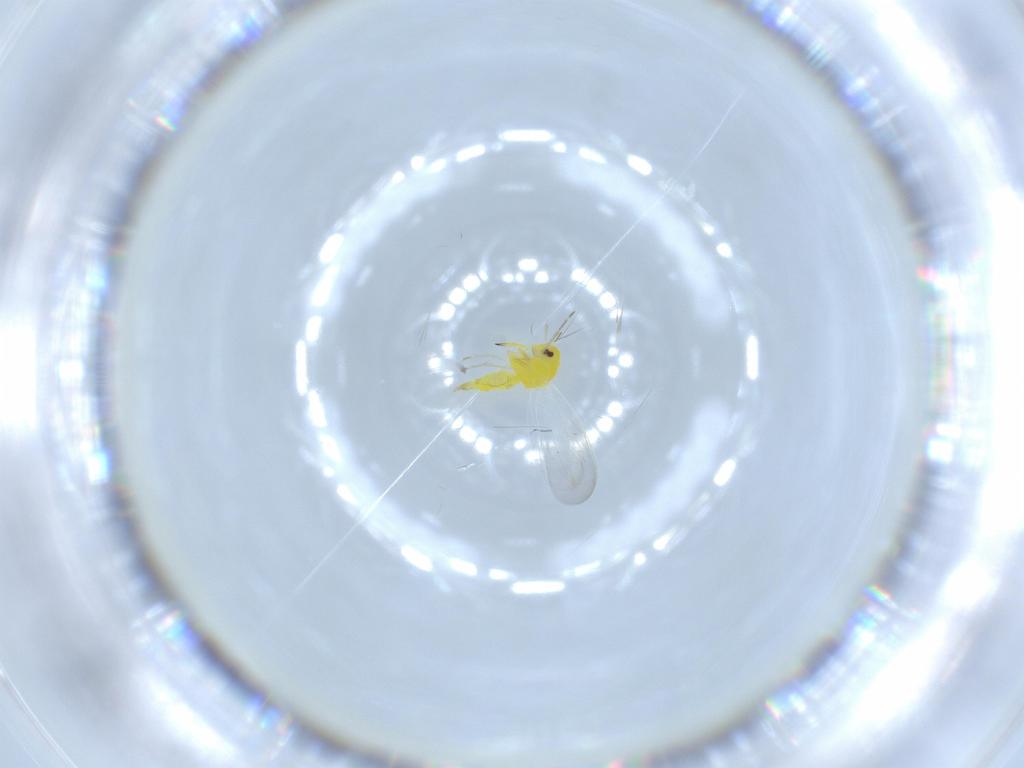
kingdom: Animalia
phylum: Arthropoda
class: Insecta
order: Hemiptera
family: Aleyrodidae
